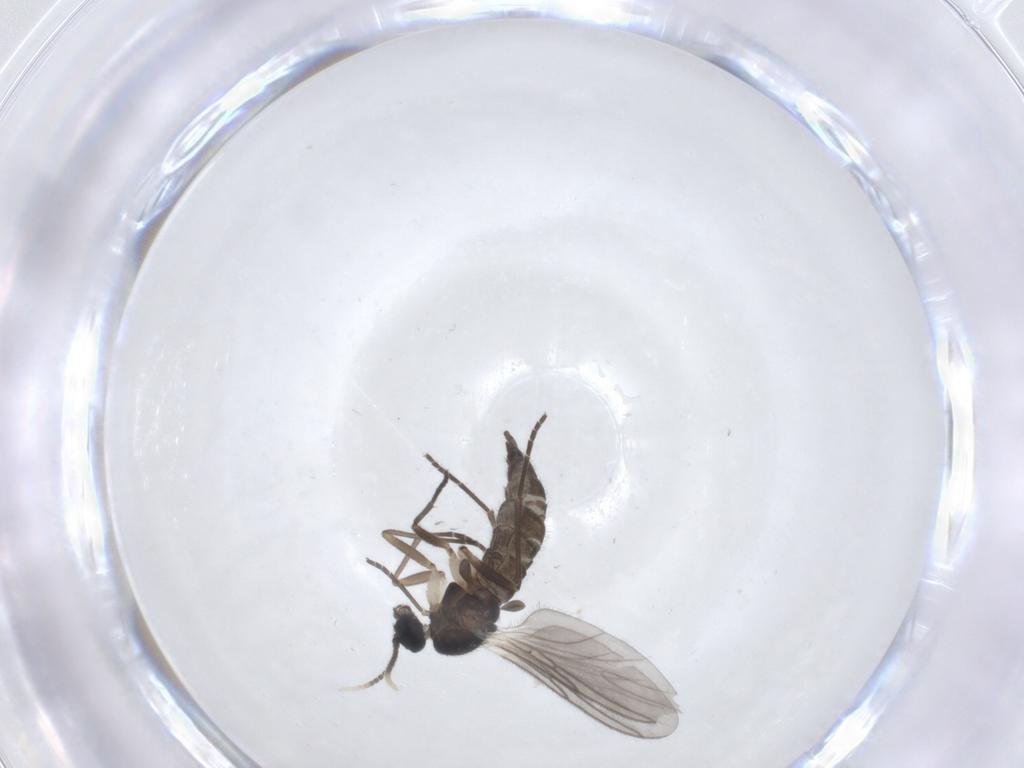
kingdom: Animalia
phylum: Arthropoda
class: Insecta
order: Diptera
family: Sciaridae
